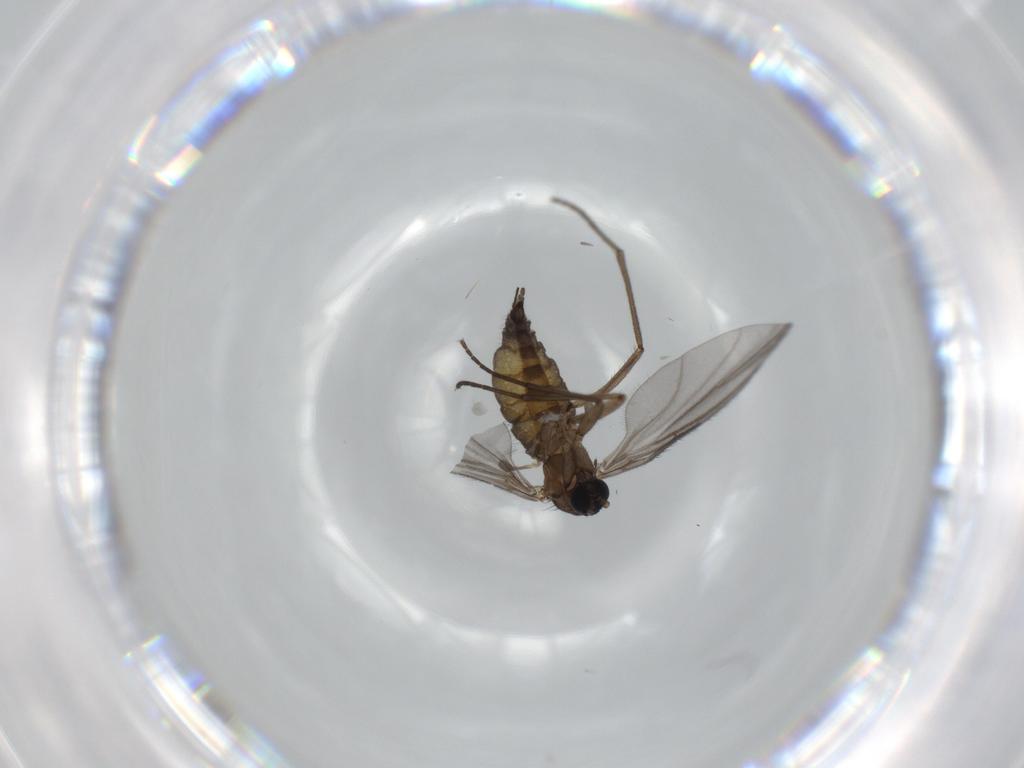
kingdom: Animalia
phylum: Arthropoda
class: Insecta
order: Diptera
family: Sciaridae
